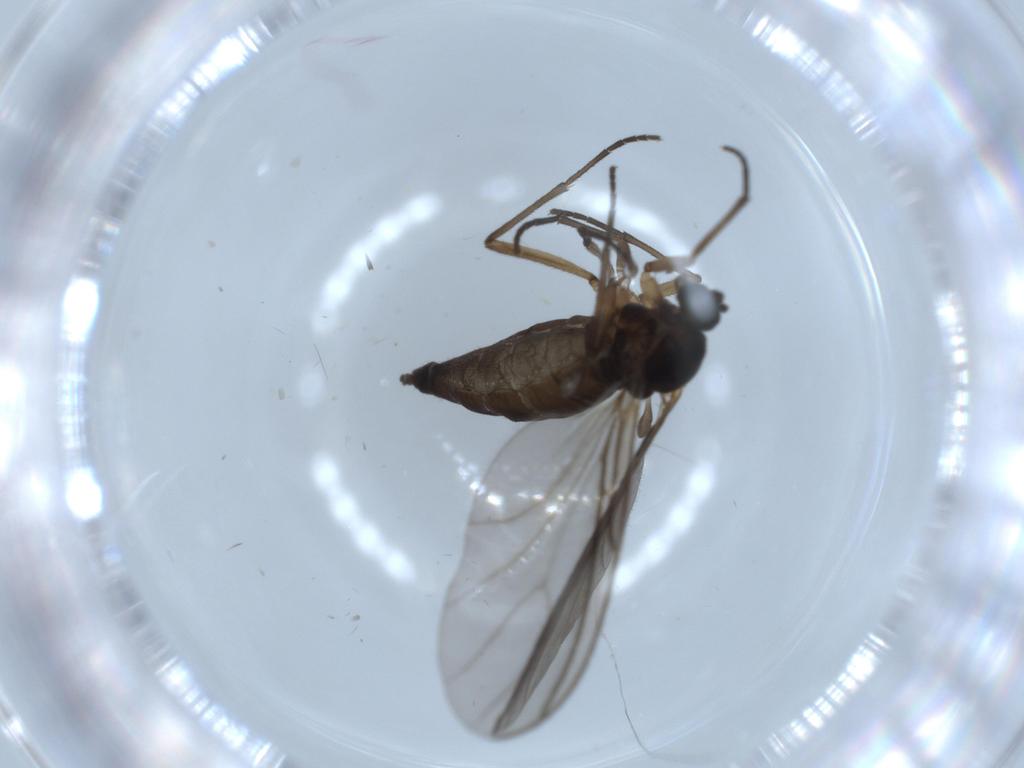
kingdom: Animalia
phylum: Arthropoda
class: Insecta
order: Diptera
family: Sciaridae
